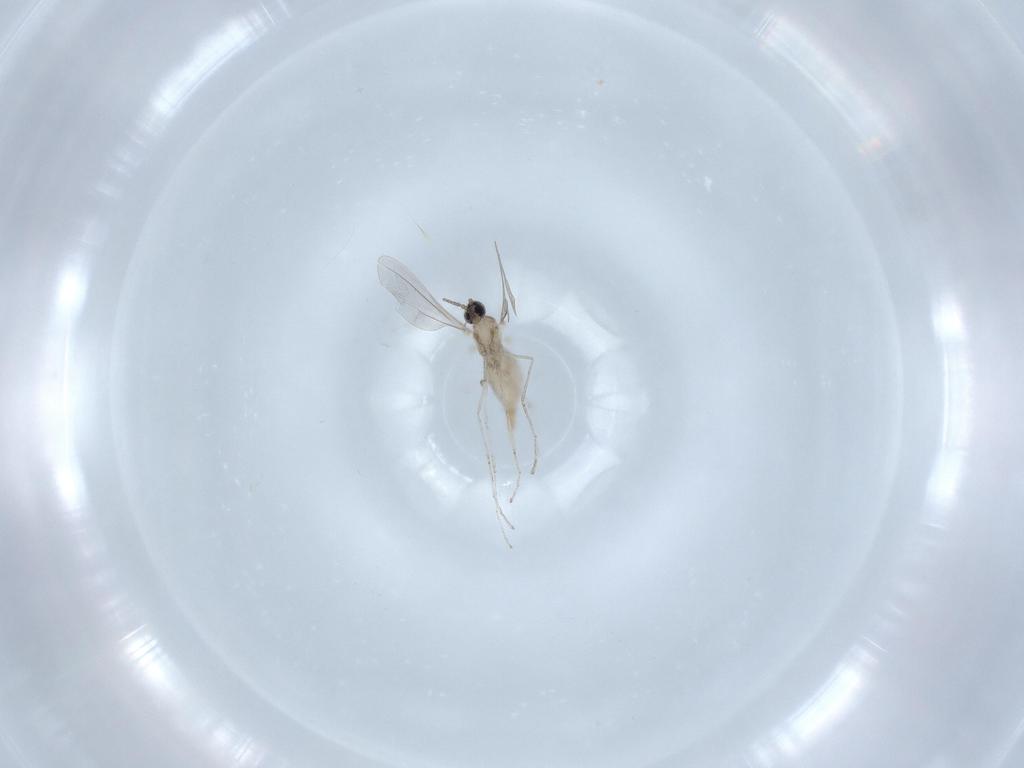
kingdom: Animalia
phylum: Arthropoda
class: Insecta
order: Diptera
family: Cecidomyiidae
